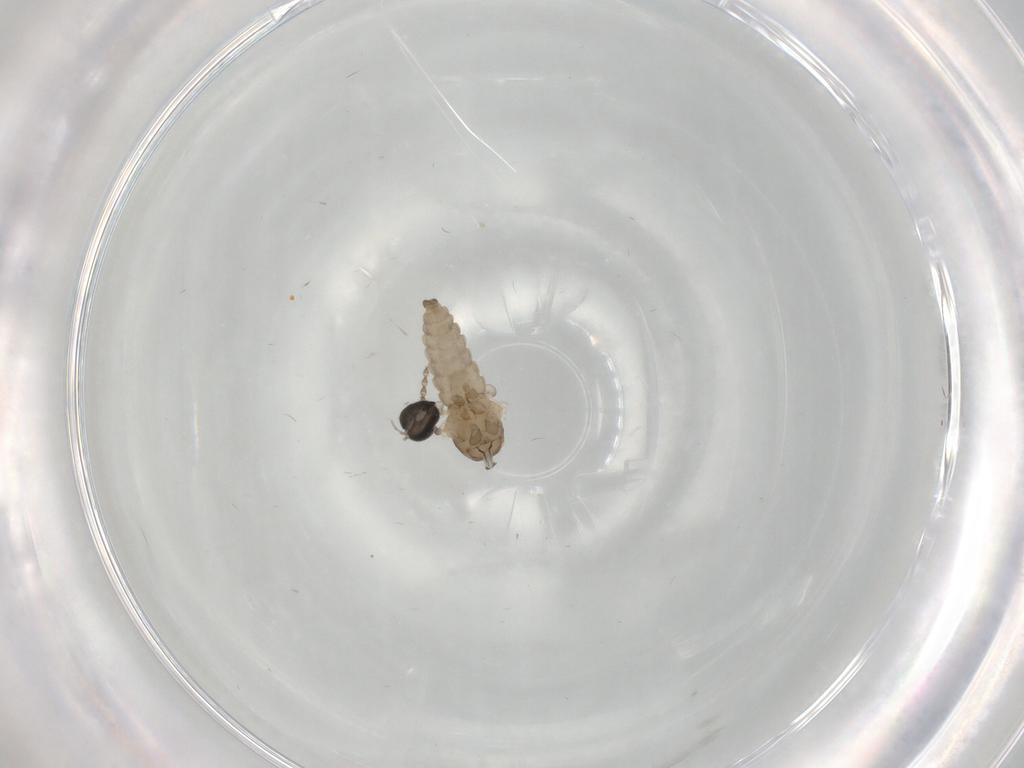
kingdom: Animalia
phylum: Arthropoda
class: Insecta
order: Diptera
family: Cecidomyiidae
